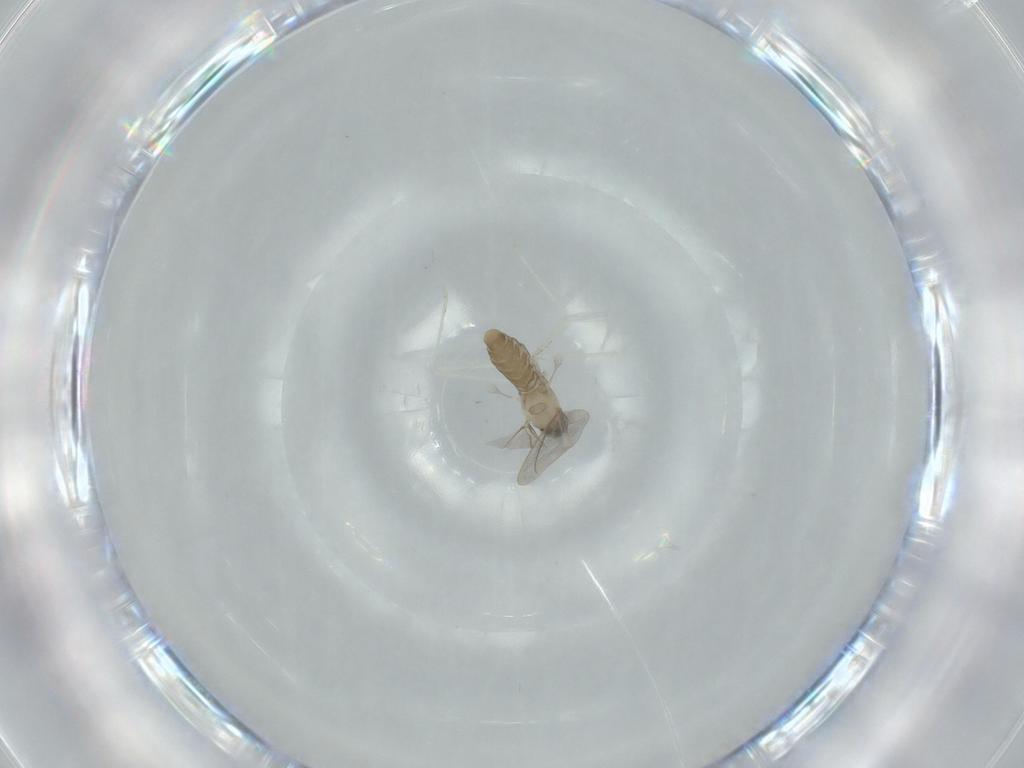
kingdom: Animalia
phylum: Arthropoda
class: Insecta
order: Diptera
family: Cecidomyiidae
